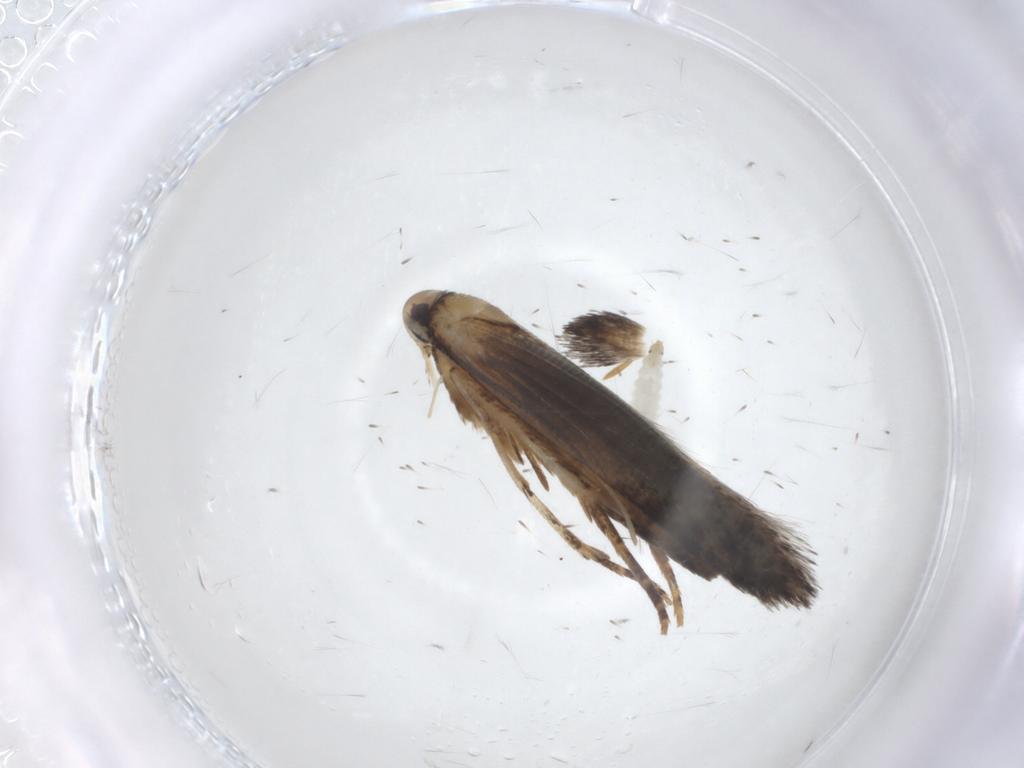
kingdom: Animalia
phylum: Arthropoda
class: Insecta
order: Lepidoptera
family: Cosmopterigidae
